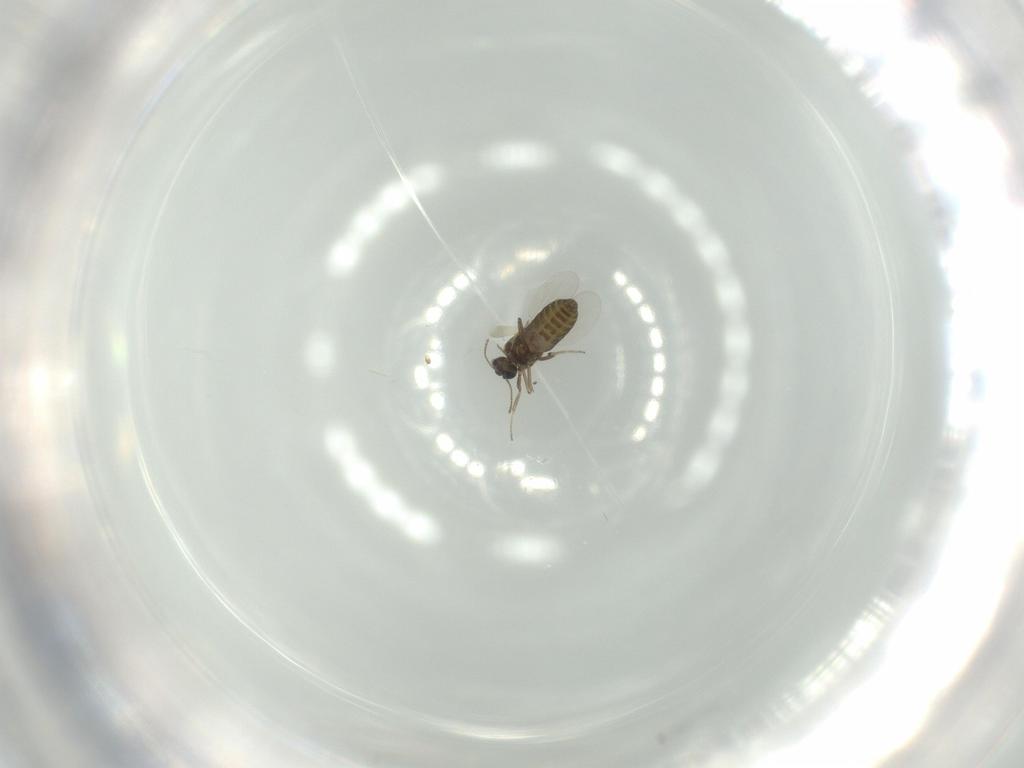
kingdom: Animalia
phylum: Arthropoda
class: Insecta
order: Diptera
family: Ceratopogonidae
